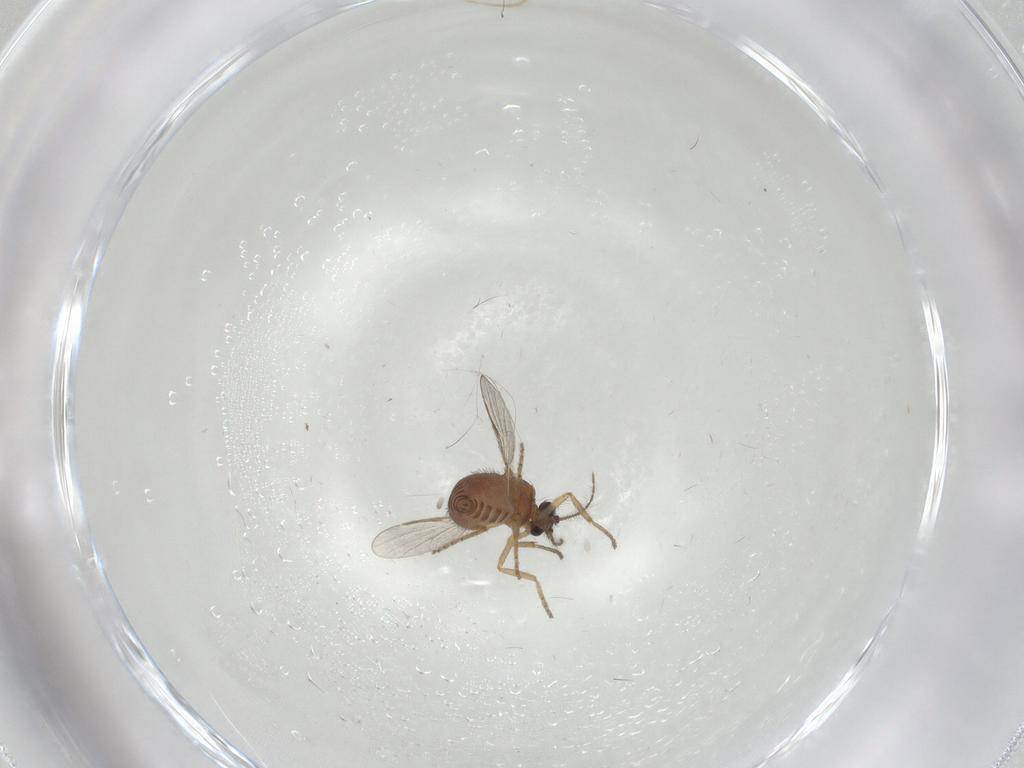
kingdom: Animalia
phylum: Arthropoda
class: Insecta
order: Diptera
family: Ceratopogonidae
